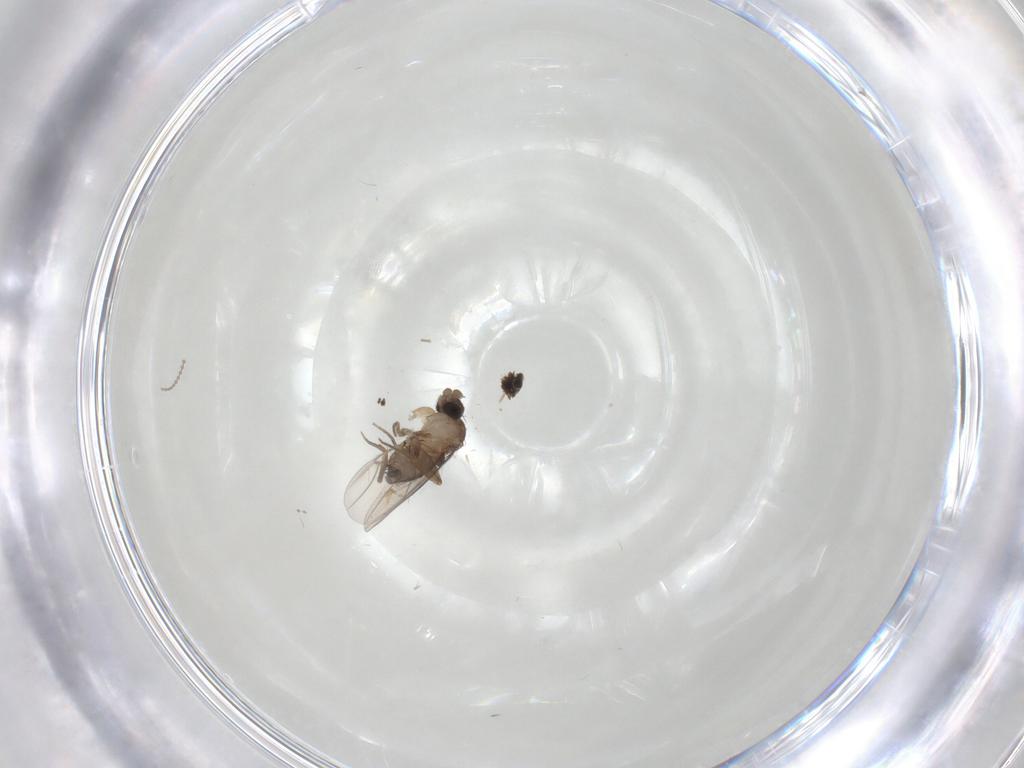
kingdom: Animalia
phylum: Arthropoda
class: Insecta
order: Diptera
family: Phoridae
